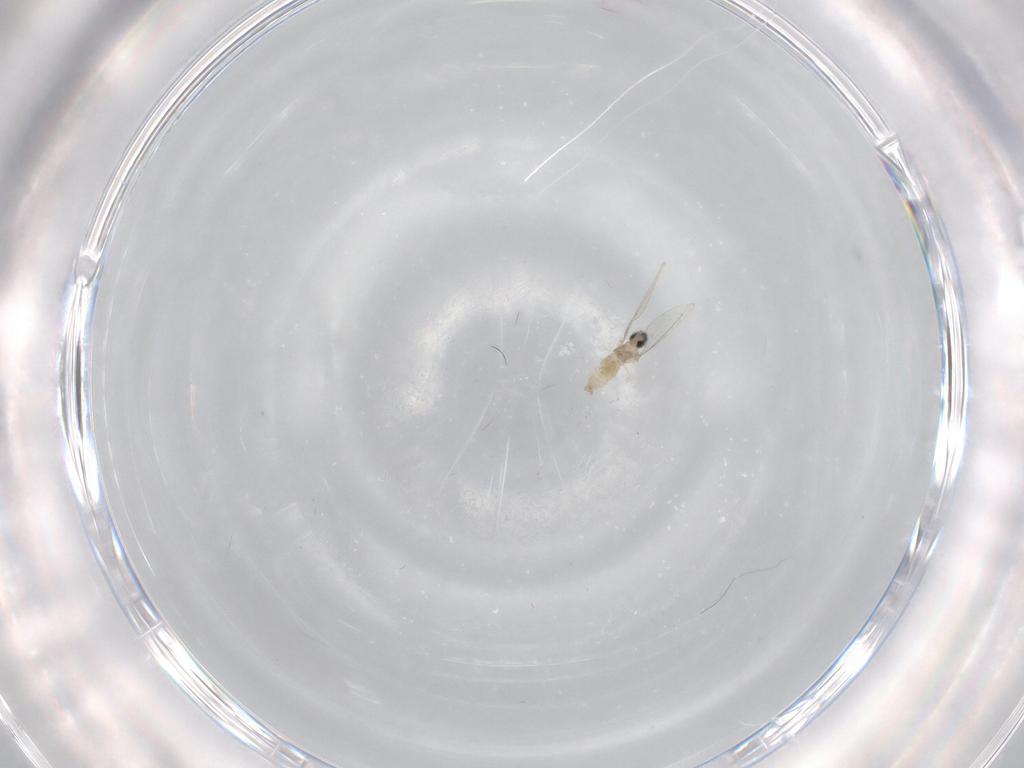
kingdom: Animalia
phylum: Arthropoda
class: Insecta
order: Diptera
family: Cecidomyiidae
